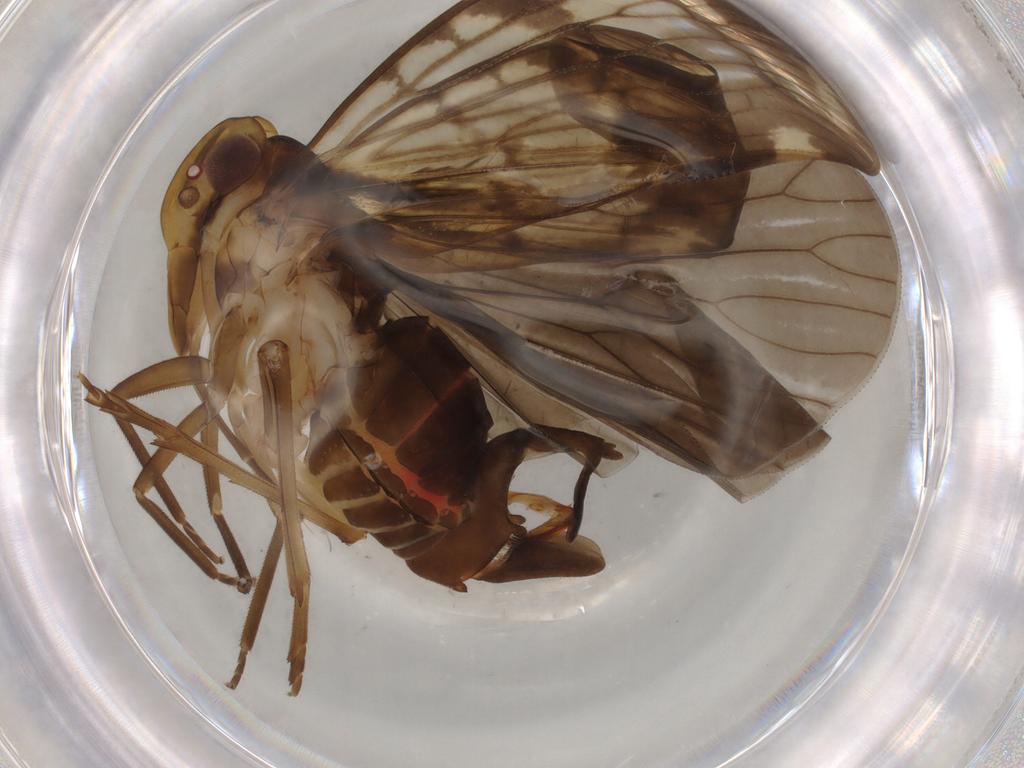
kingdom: Animalia
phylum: Arthropoda
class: Insecta
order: Hemiptera
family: Cixiidae
